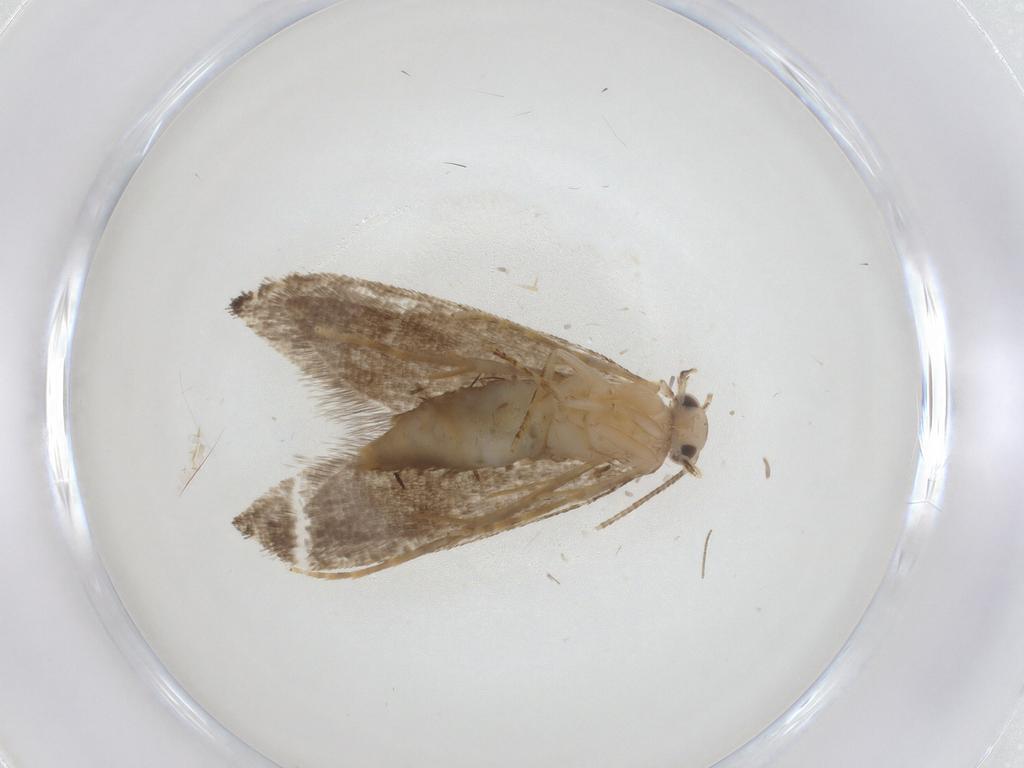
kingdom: Animalia
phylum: Arthropoda
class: Insecta
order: Lepidoptera
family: Tineidae
